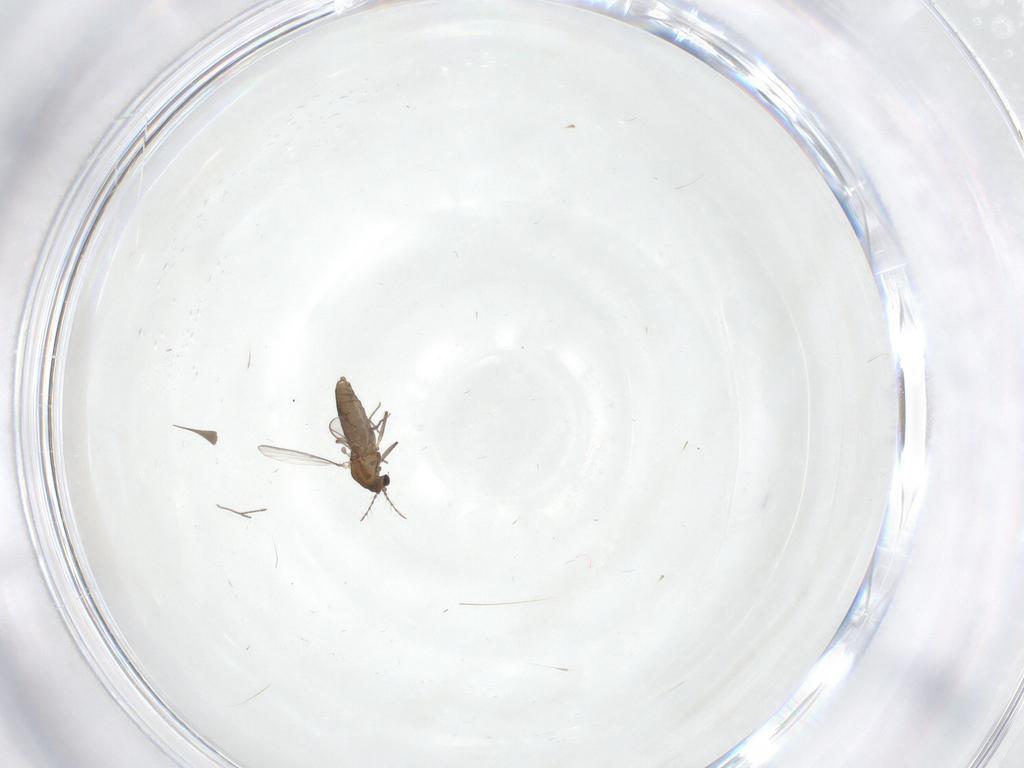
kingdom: Animalia
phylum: Arthropoda
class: Insecta
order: Diptera
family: Chironomidae
